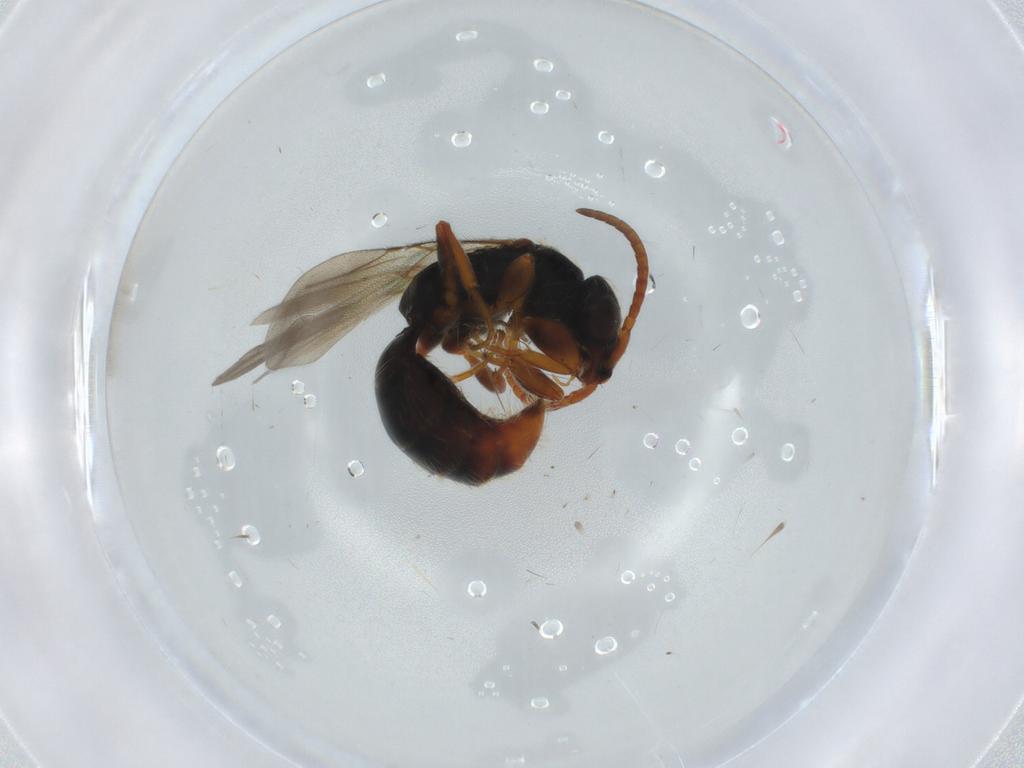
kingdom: Animalia
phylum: Arthropoda
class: Insecta
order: Hymenoptera
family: Bethylidae
